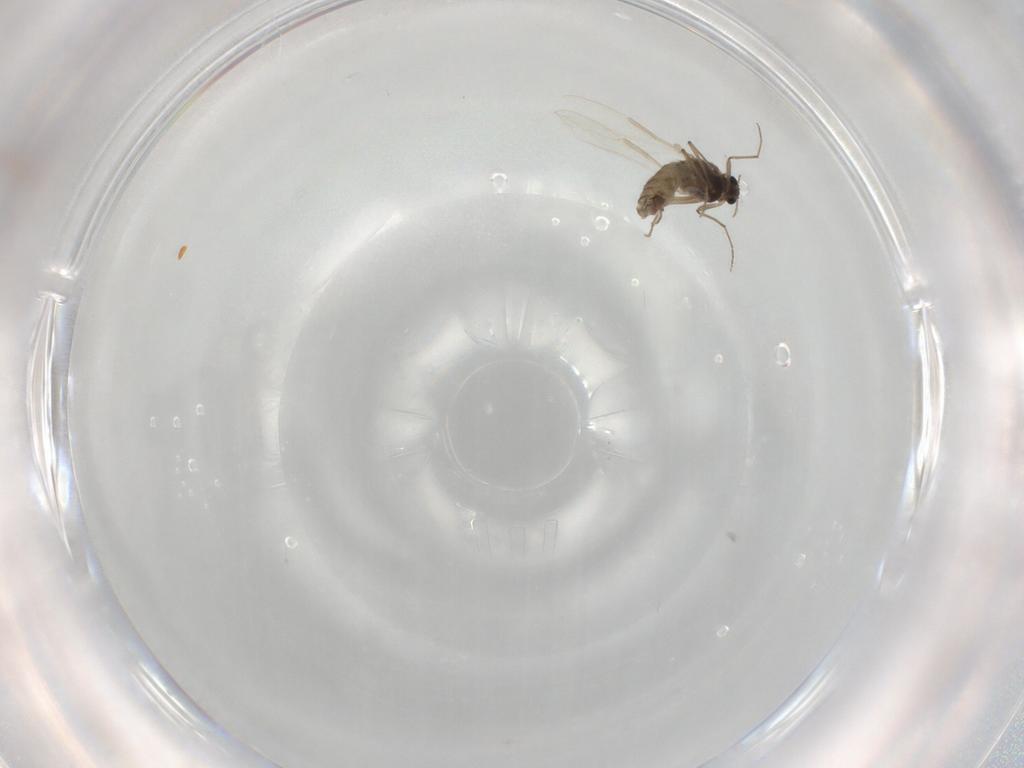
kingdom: Animalia
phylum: Arthropoda
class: Insecta
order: Diptera
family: Chironomidae
